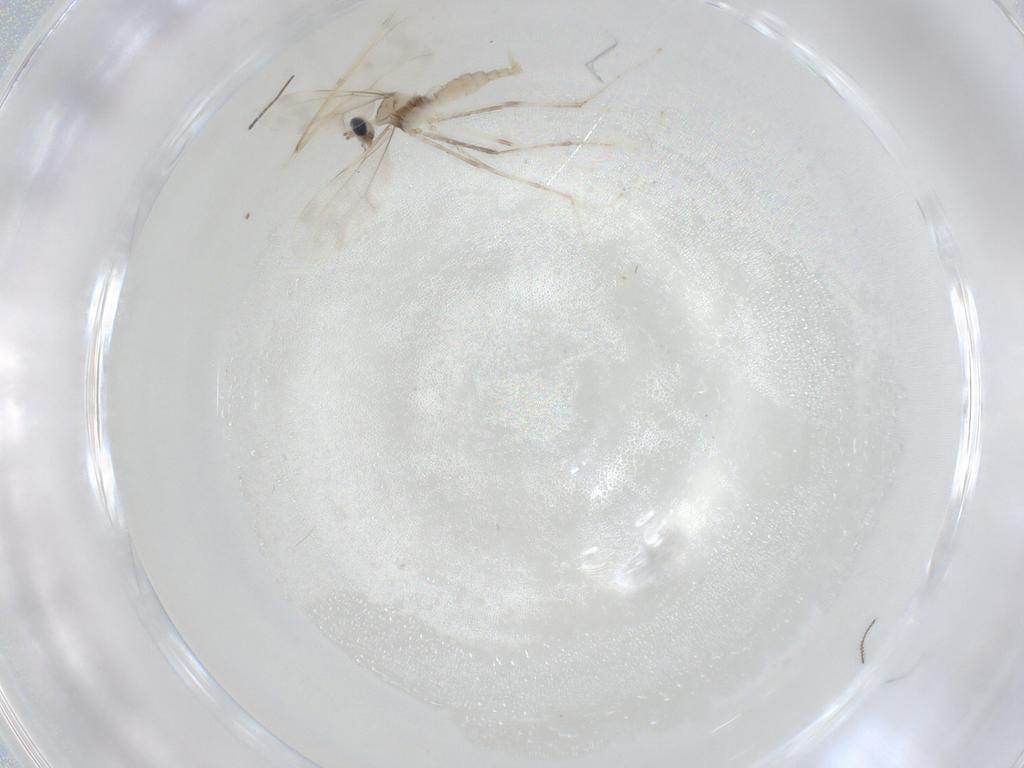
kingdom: Animalia
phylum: Arthropoda
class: Insecta
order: Diptera
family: Cecidomyiidae
